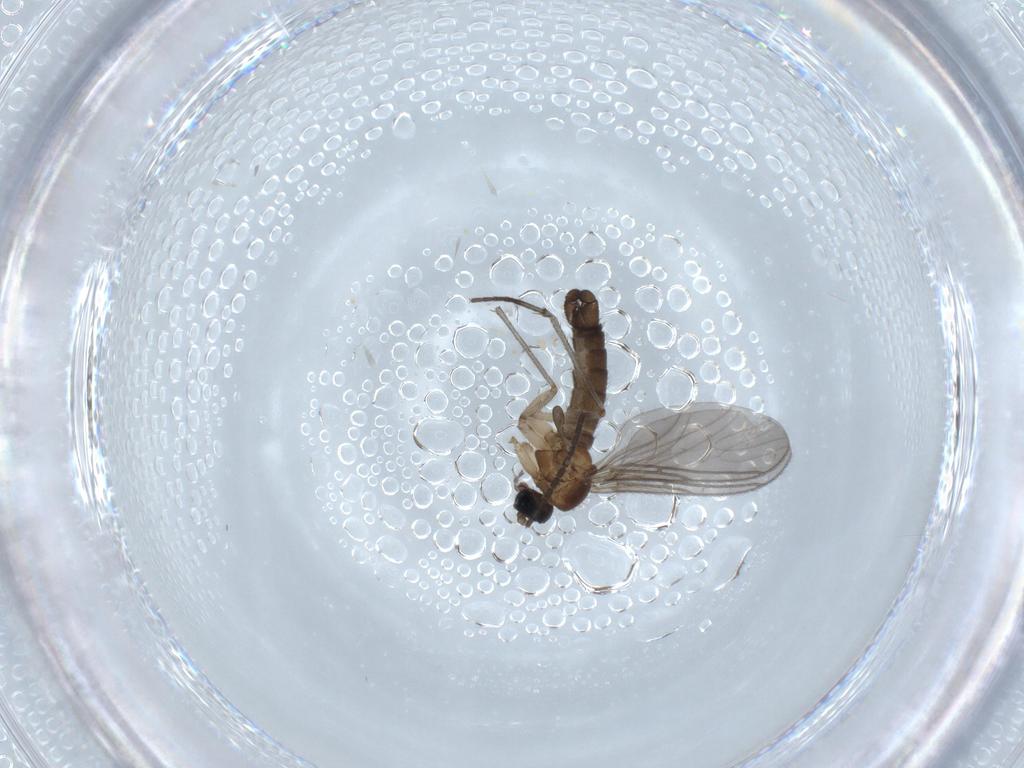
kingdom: Animalia
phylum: Arthropoda
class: Insecta
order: Diptera
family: Sciaridae
